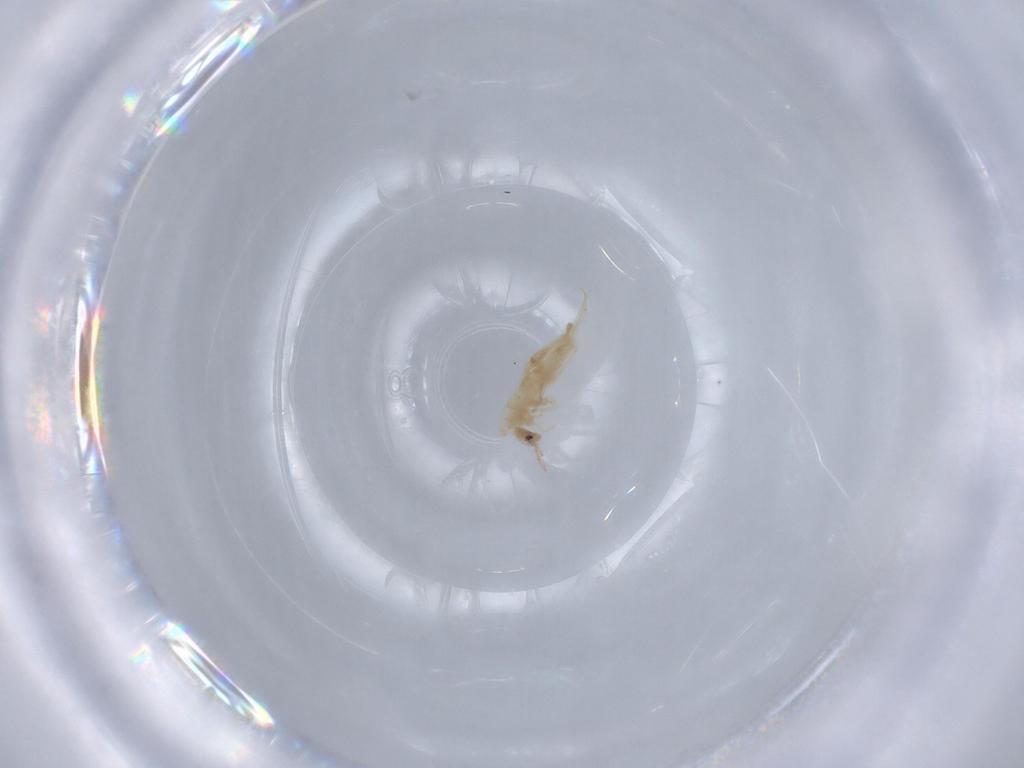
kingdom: Animalia
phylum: Arthropoda
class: Collembola
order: Entomobryomorpha
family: Entomobryidae
